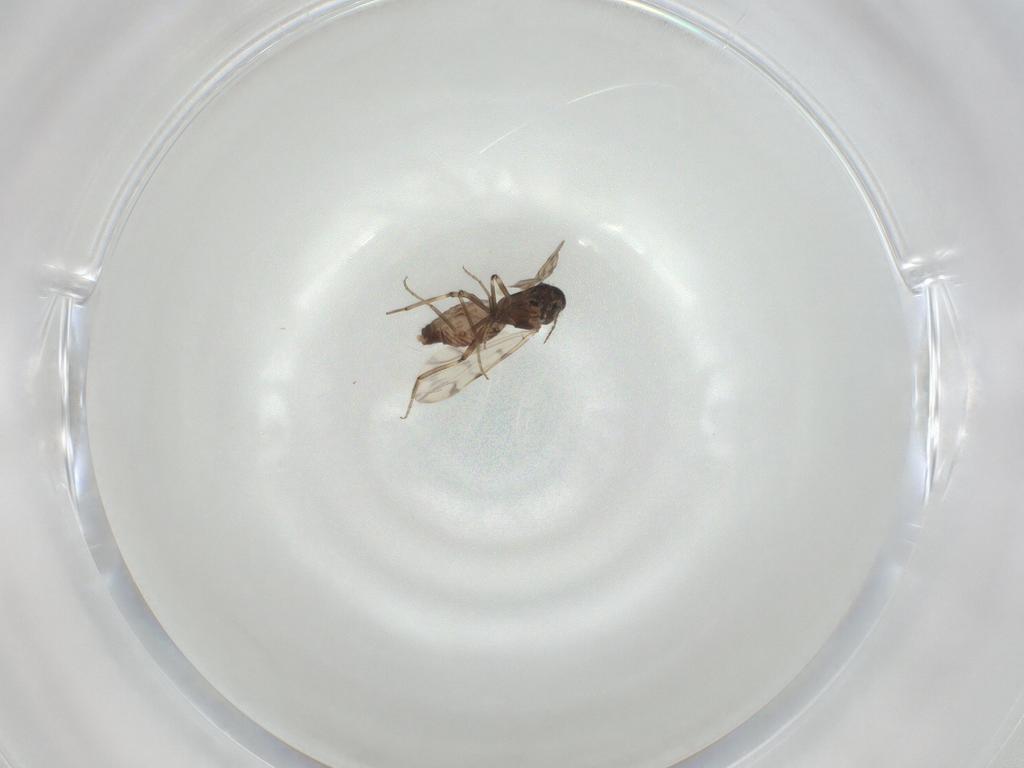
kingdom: Animalia
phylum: Arthropoda
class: Insecta
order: Diptera
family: Ceratopogonidae
